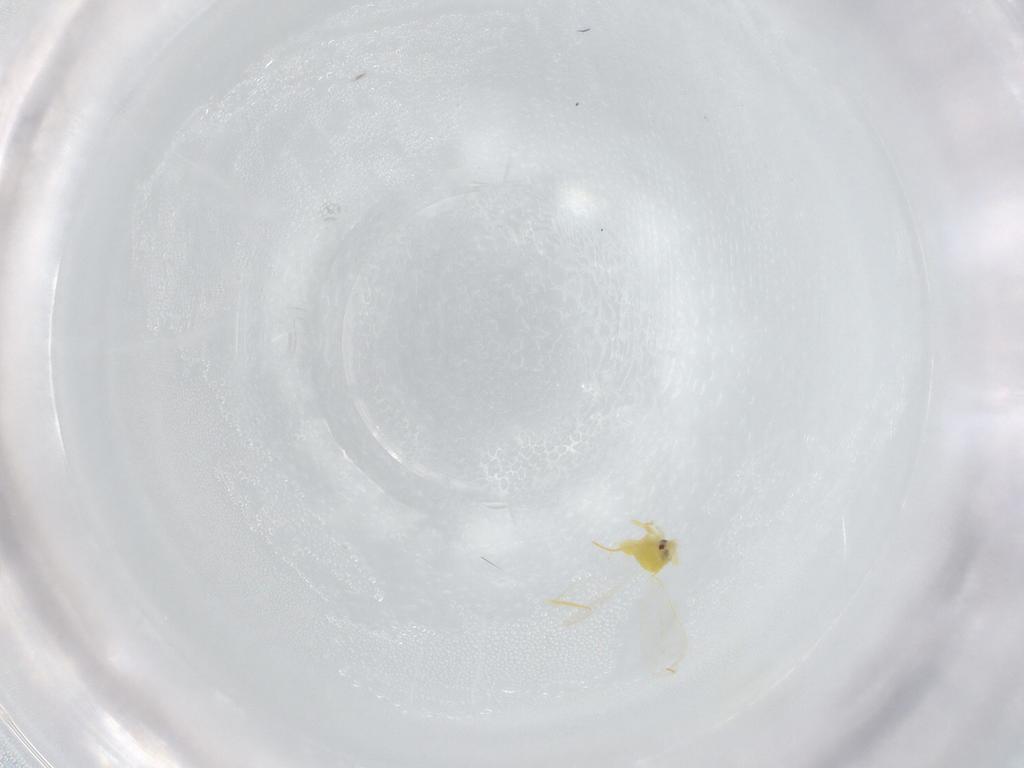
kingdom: Animalia
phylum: Arthropoda
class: Insecta
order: Hemiptera
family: Aleyrodidae
